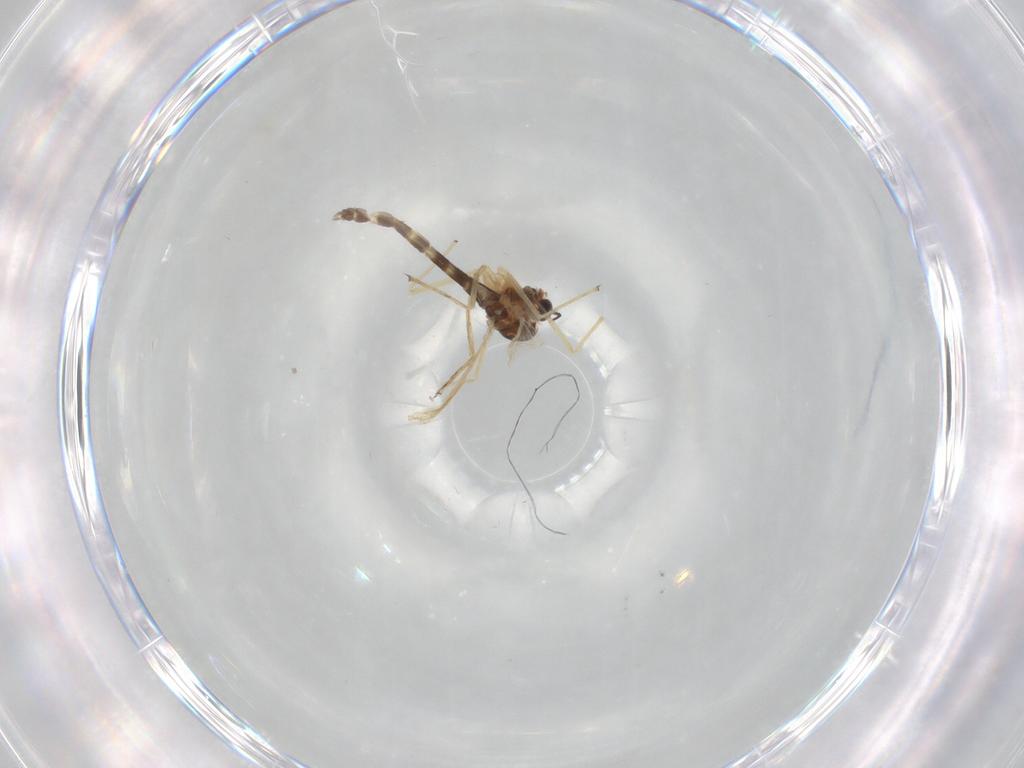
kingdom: Animalia
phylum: Arthropoda
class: Insecta
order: Diptera
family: Chironomidae
